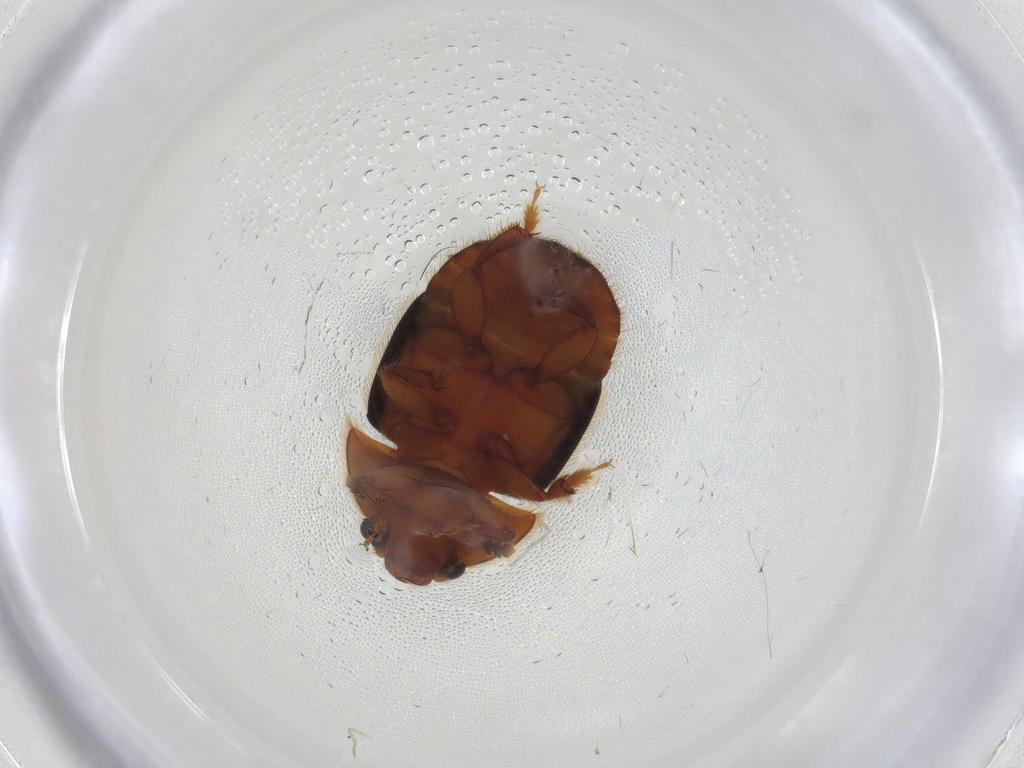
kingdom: Animalia
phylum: Arthropoda
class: Insecta
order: Coleoptera
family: Nitidulidae
